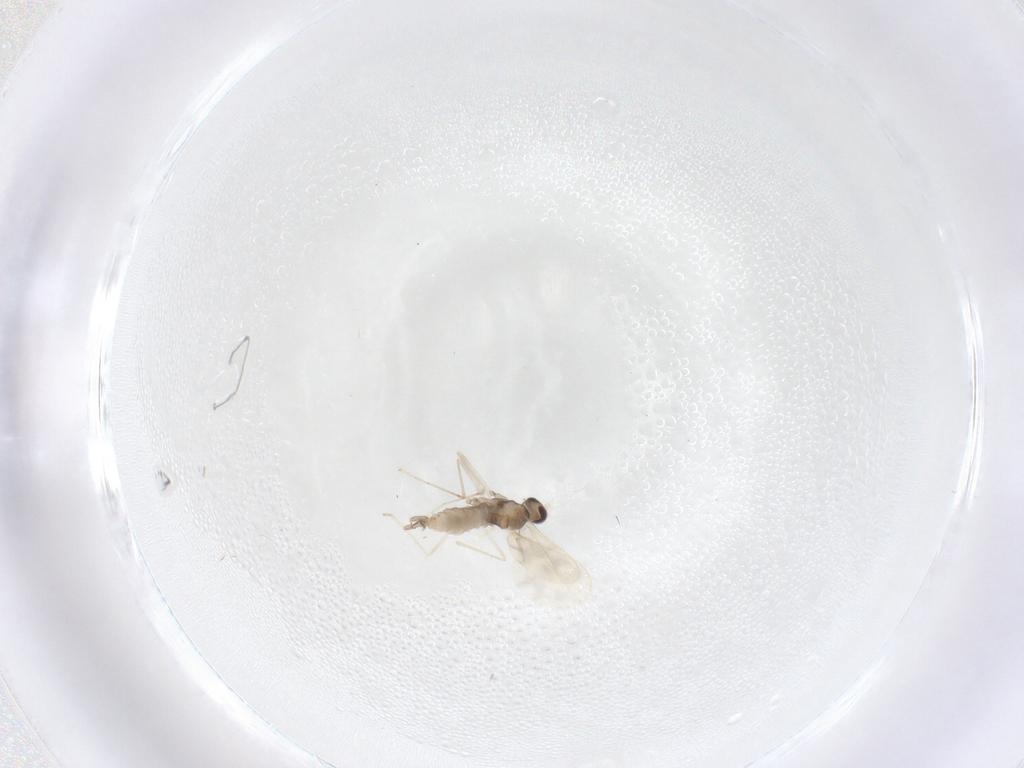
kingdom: Animalia
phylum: Arthropoda
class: Insecta
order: Diptera
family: Cecidomyiidae
